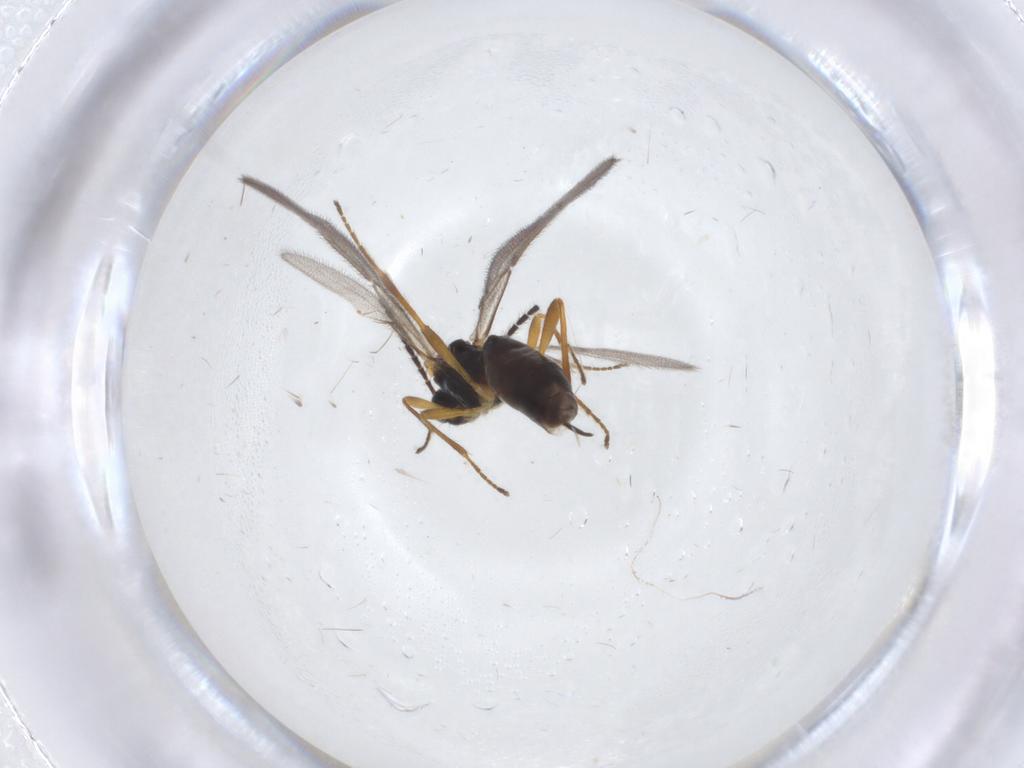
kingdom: Animalia
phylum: Arthropoda
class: Insecta
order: Hymenoptera
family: Braconidae
